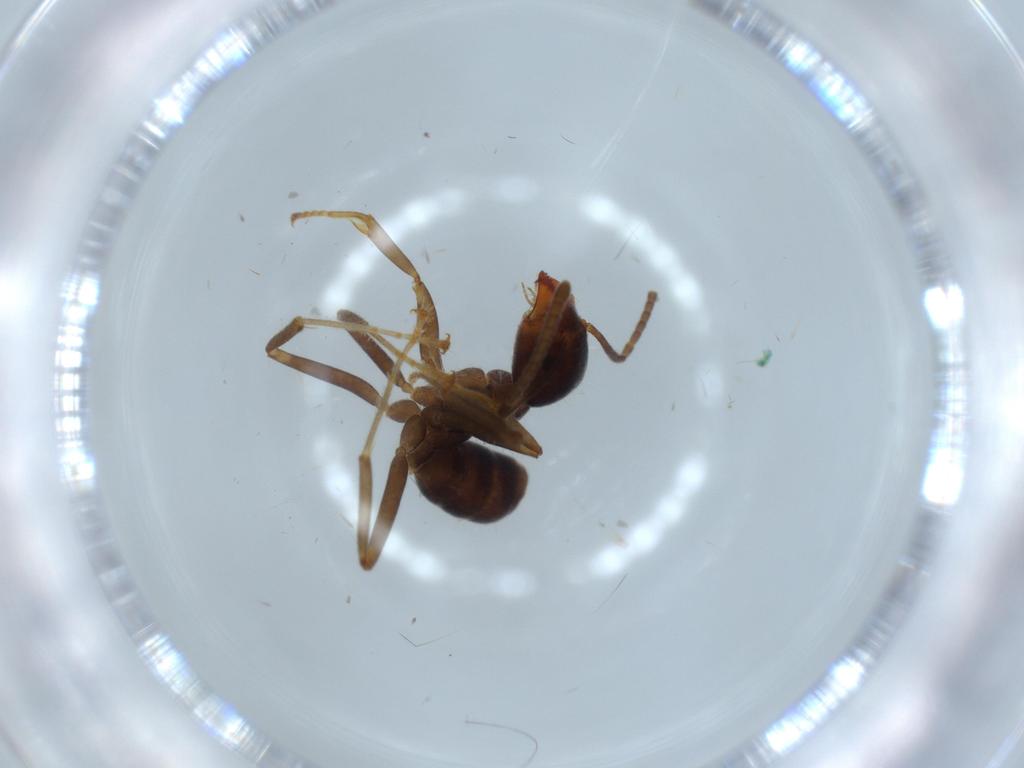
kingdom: Animalia
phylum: Arthropoda
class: Insecta
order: Hymenoptera
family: Formicidae
